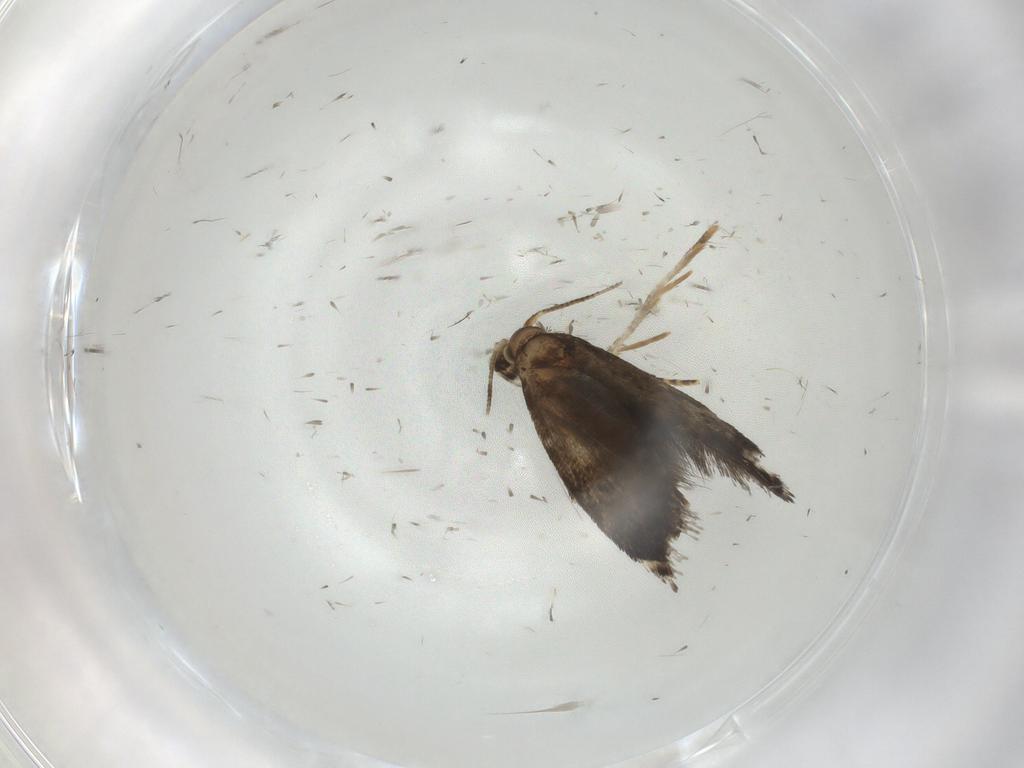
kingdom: Animalia
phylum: Arthropoda
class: Insecta
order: Lepidoptera
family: Tineidae
